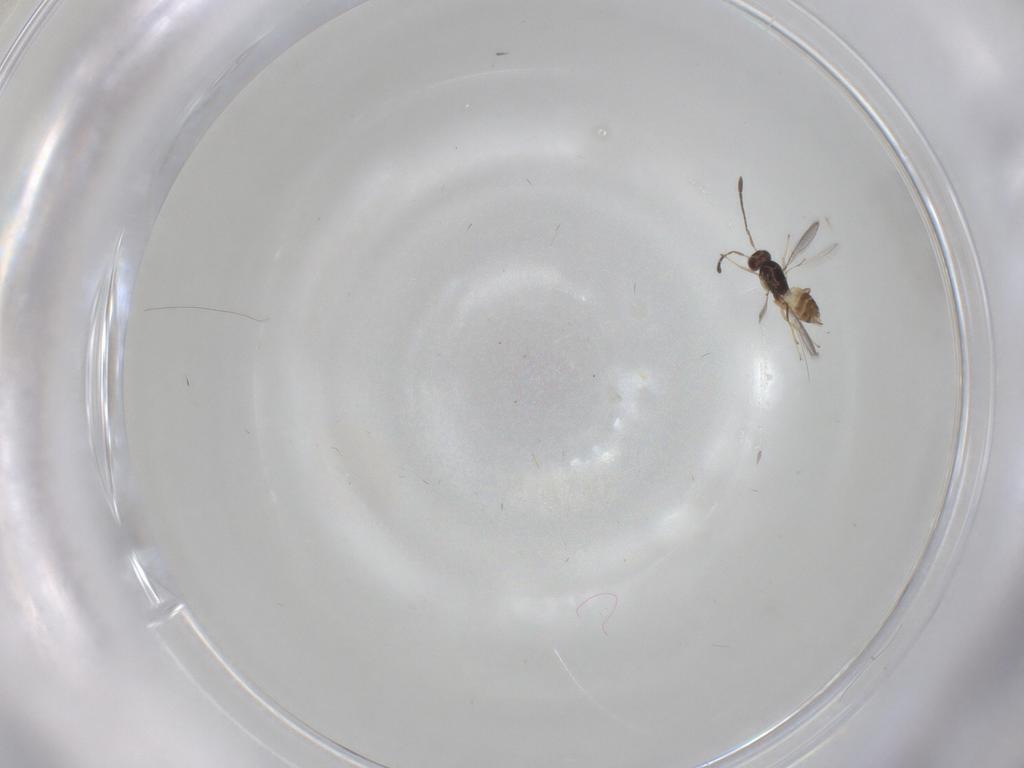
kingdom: Animalia
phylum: Arthropoda
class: Insecta
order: Hymenoptera
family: Mymaridae
